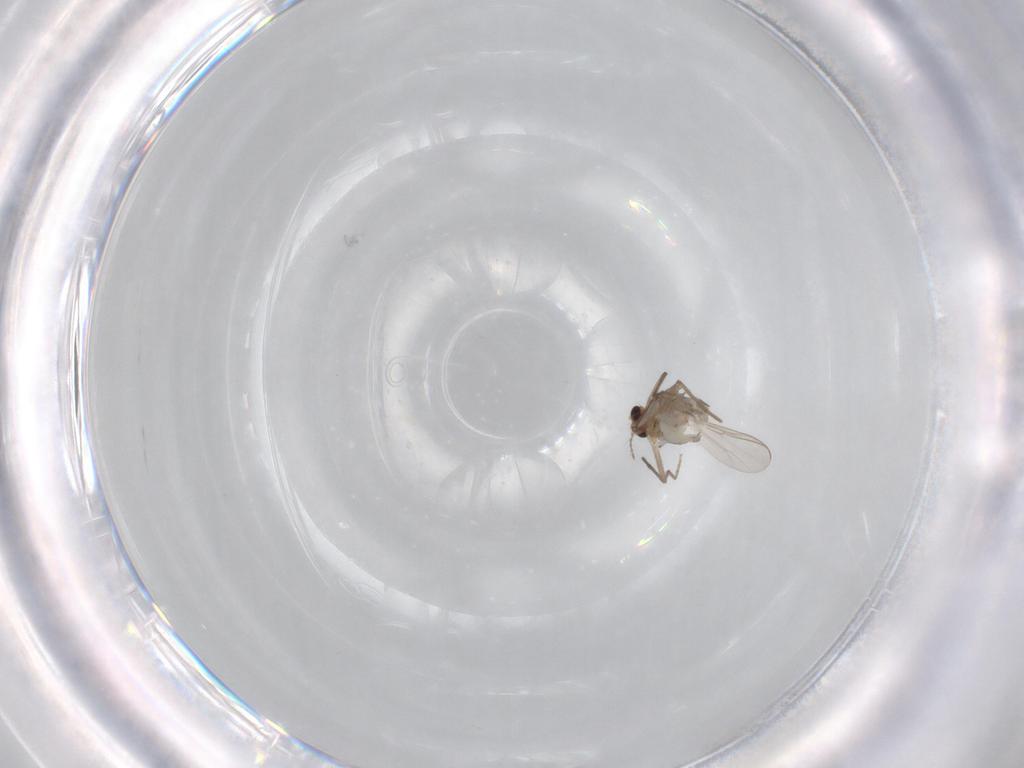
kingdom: Animalia
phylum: Arthropoda
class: Insecta
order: Diptera
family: Chironomidae
